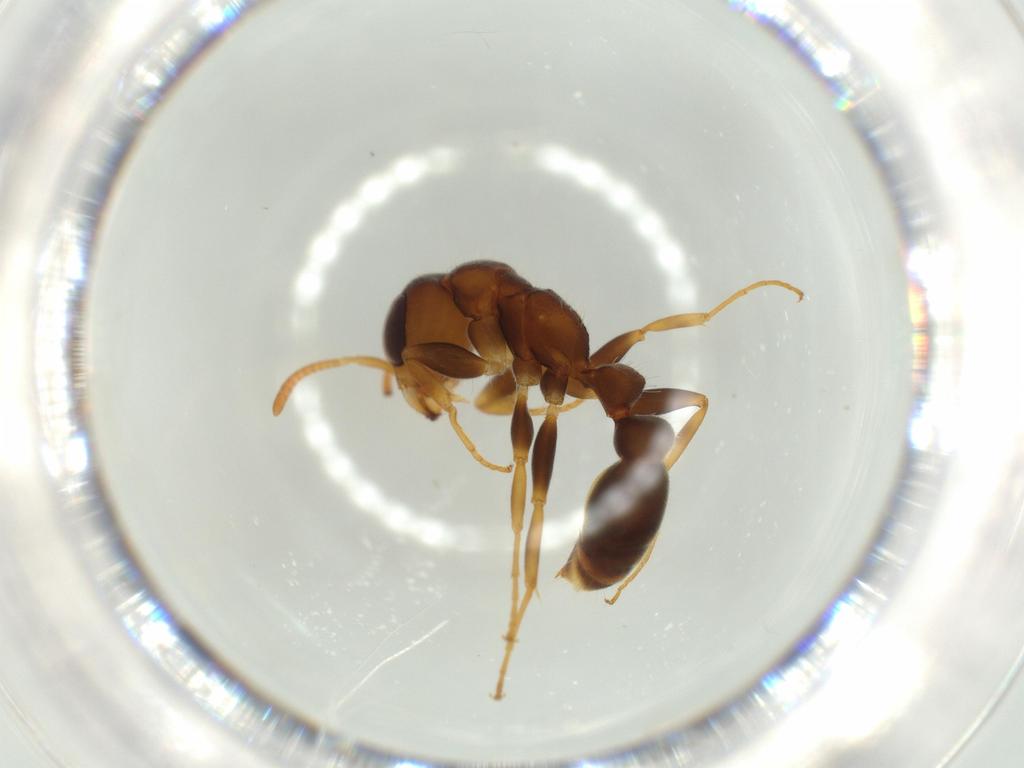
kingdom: Animalia
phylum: Arthropoda
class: Insecta
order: Hymenoptera
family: Formicidae
